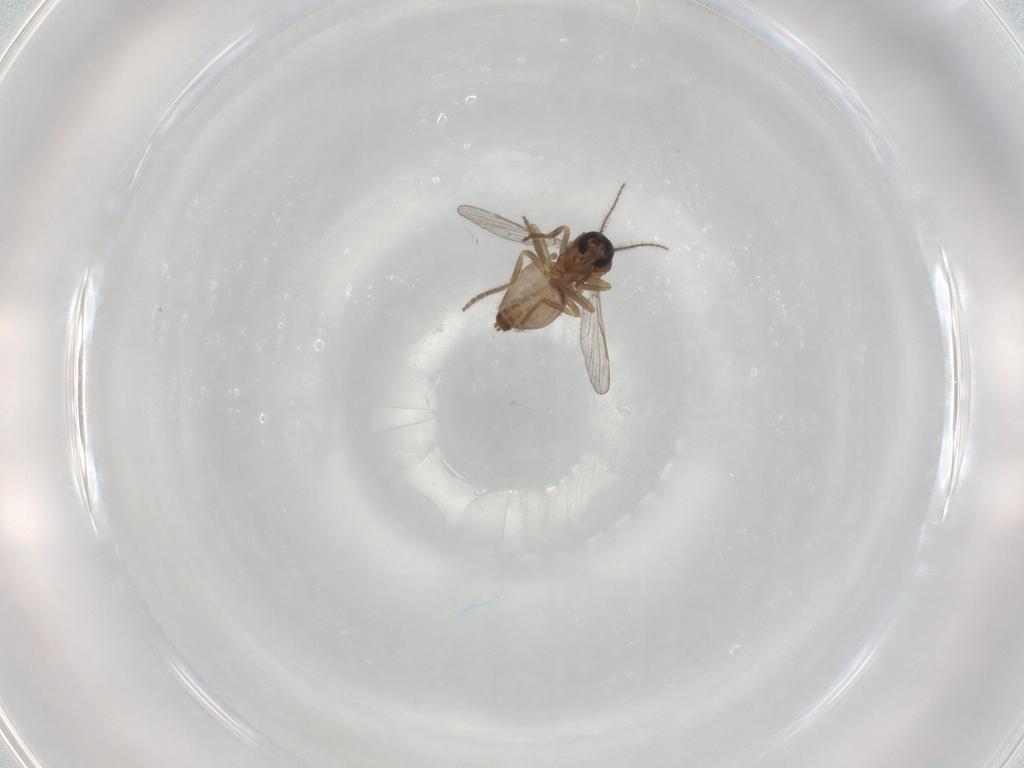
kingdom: Animalia
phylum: Arthropoda
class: Insecta
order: Diptera
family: Ceratopogonidae
